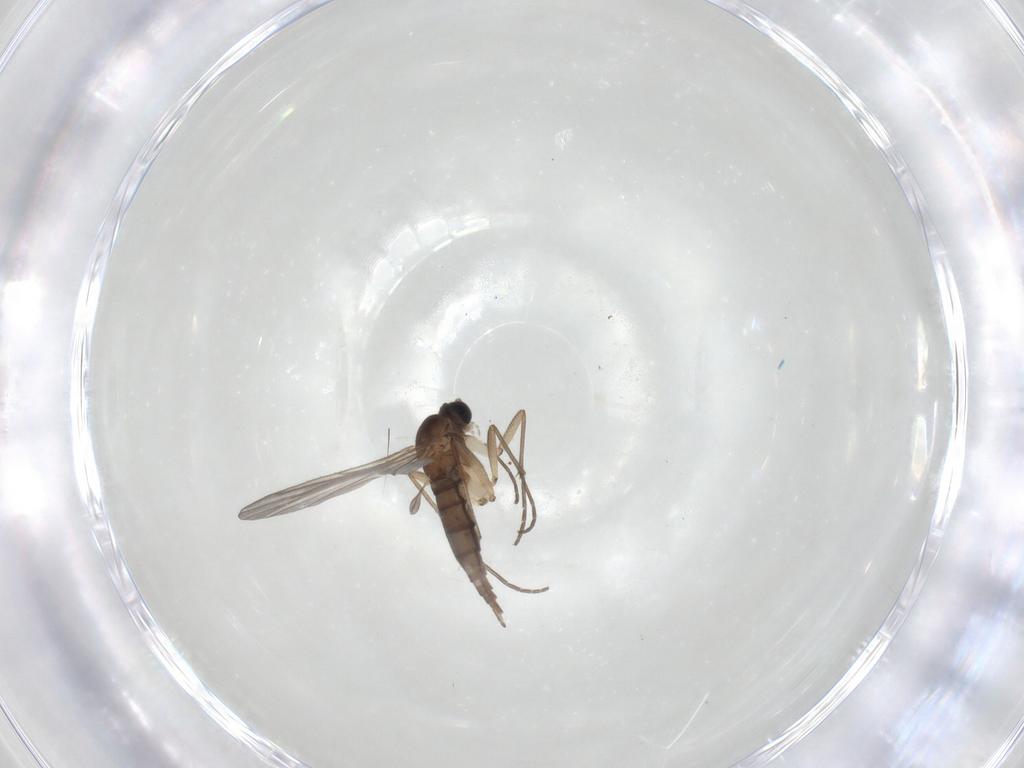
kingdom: Animalia
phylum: Arthropoda
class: Insecta
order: Diptera
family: Sciaridae
